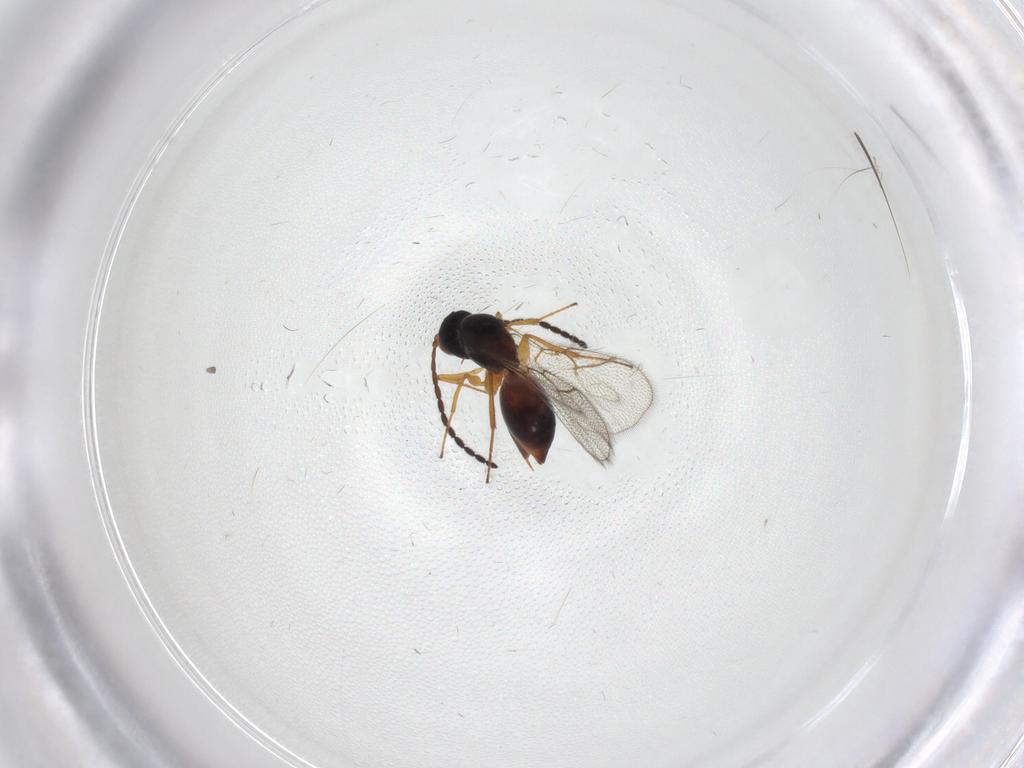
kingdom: Animalia
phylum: Arthropoda
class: Insecta
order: Hymenoptera
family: Figitidae
